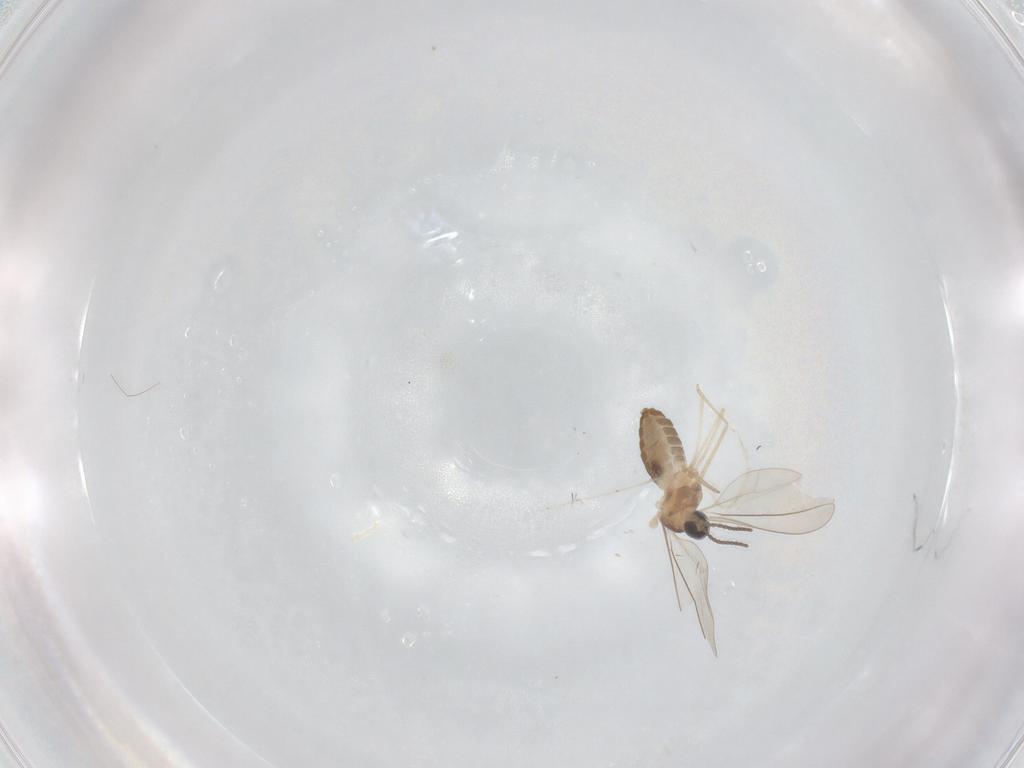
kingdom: Animalia
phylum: Arthropoda
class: Insecta
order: Diptera
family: Cecidomyiidae
